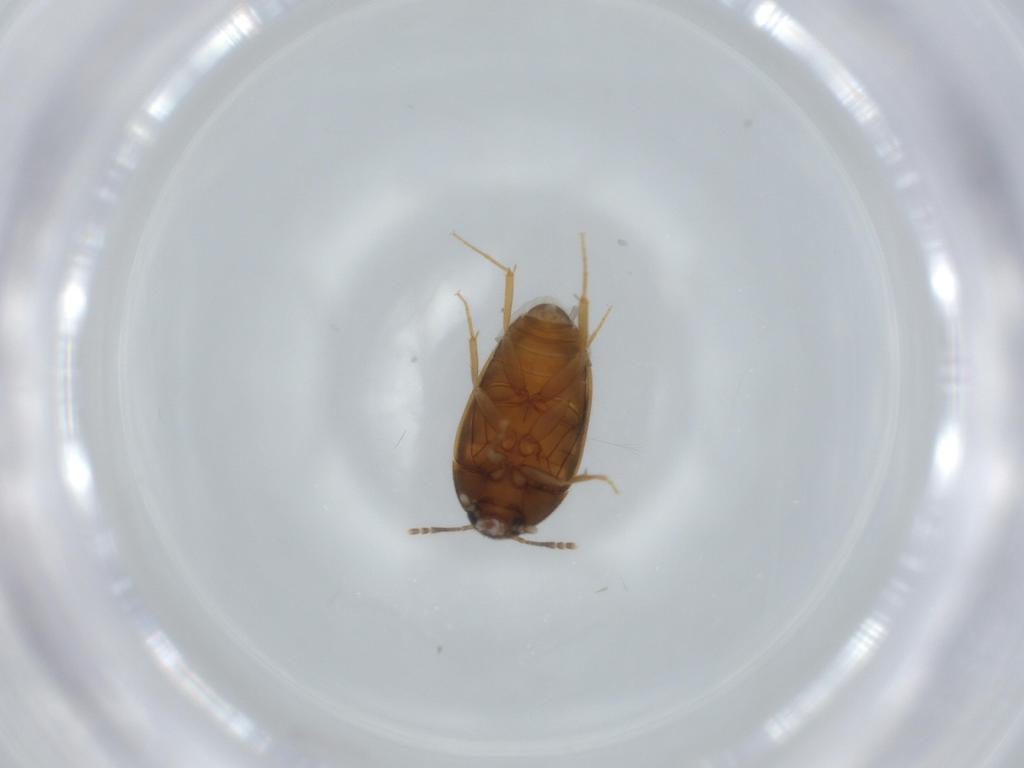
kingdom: Animalia
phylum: Arthropoda
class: Insecta
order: Coleoptera
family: Mycetophagidae
